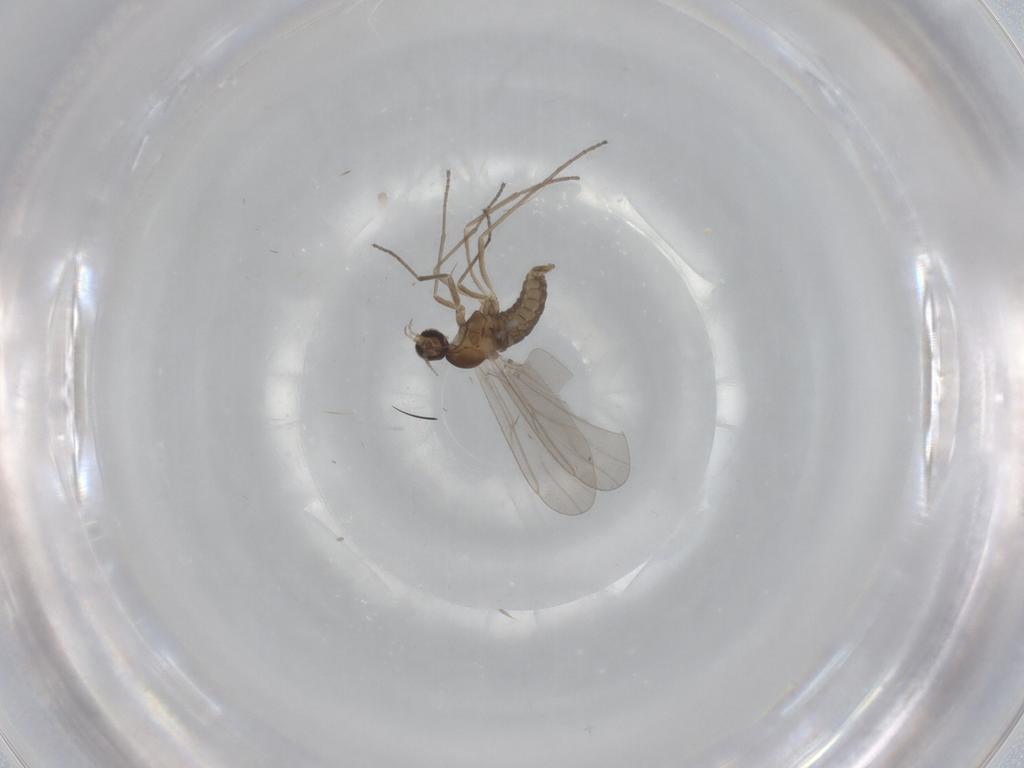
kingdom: Animalia
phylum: Arthropoda
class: Insecta
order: Diptera
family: Cecidomyiidae
